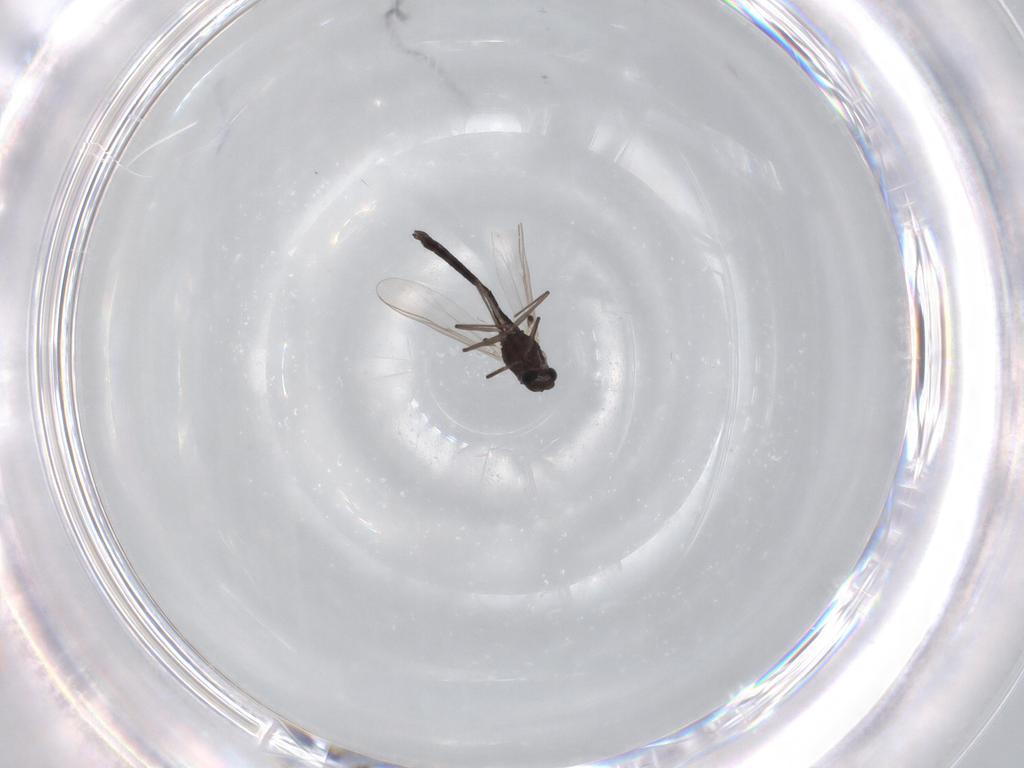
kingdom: Animalia
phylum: Arthropoda
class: Insecta
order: Diptera
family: Chironomidae
